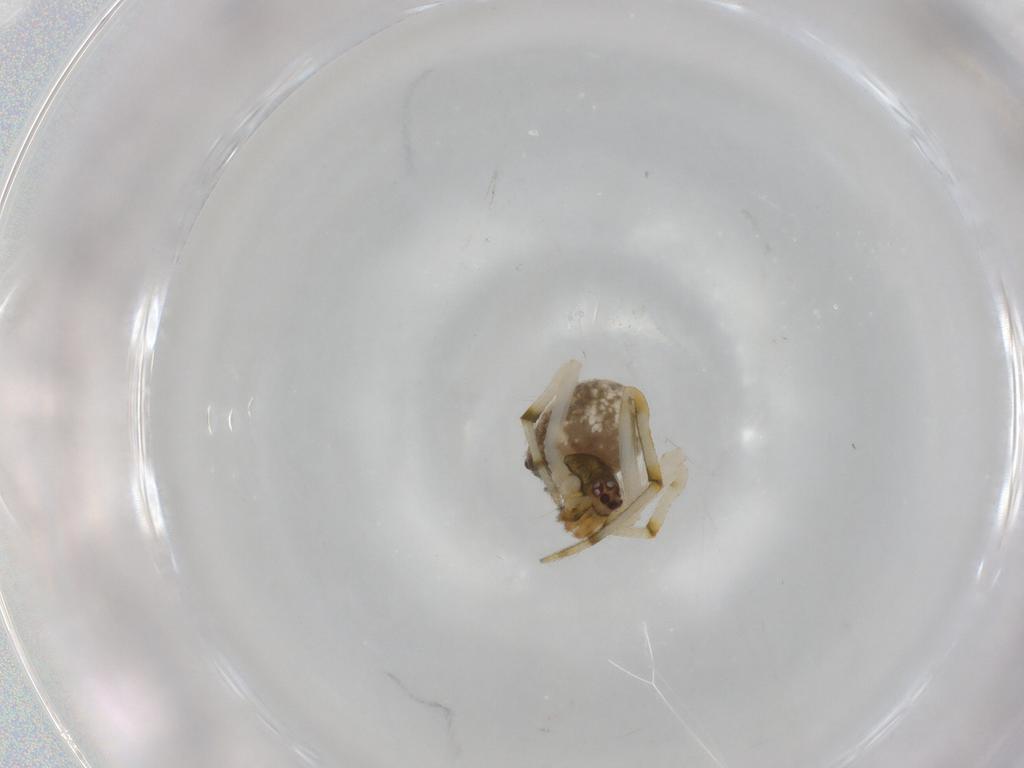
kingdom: Animalia
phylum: Arthropoda
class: Arachnida
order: Araneae
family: Theridiidae
